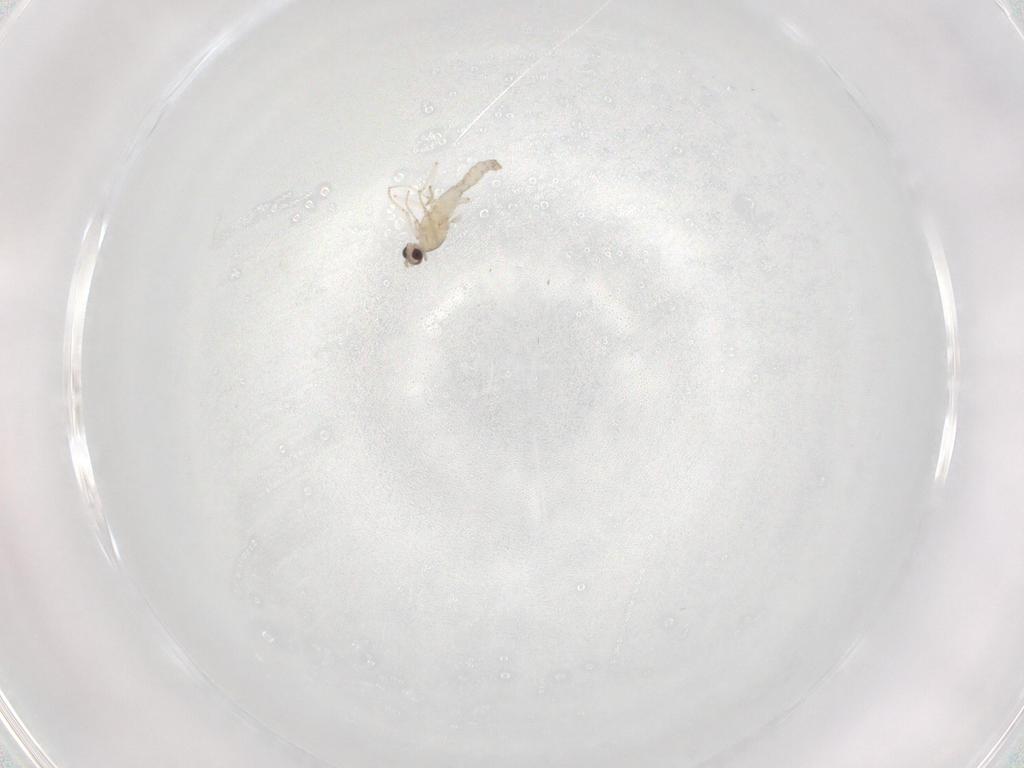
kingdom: Animalia
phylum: Arthropoda
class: Insecta
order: Diptera
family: Cecidomyiidae
